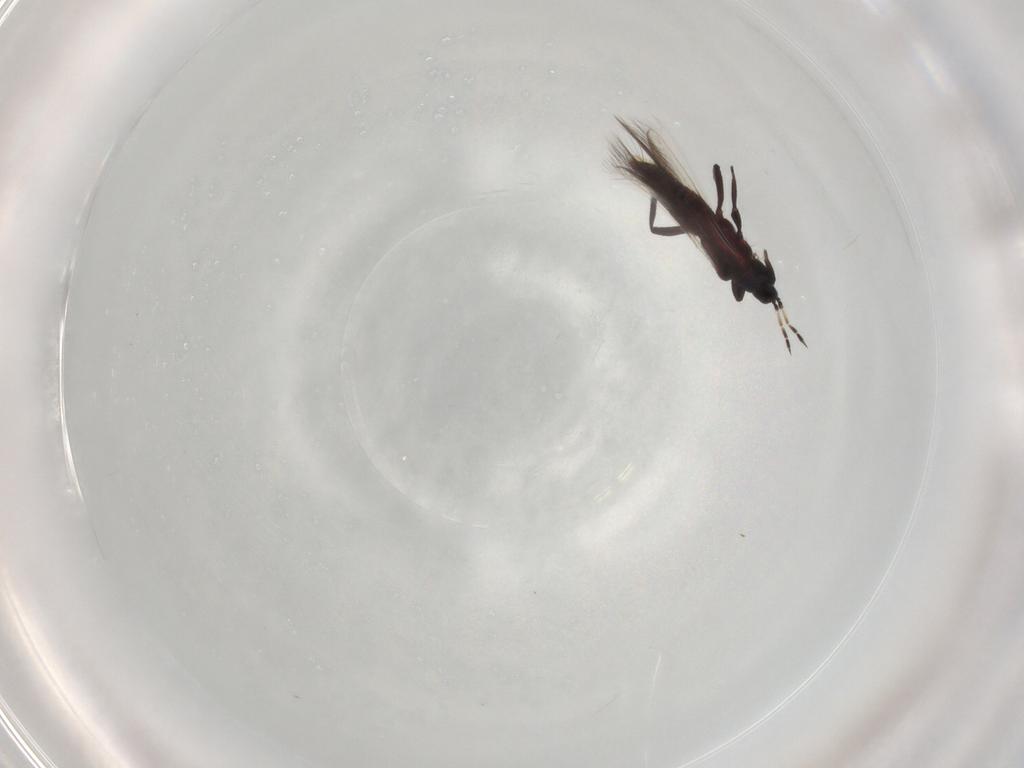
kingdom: Animalia
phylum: Arthropoda
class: Insecta
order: Thysanoptera
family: Aeolothripidae
